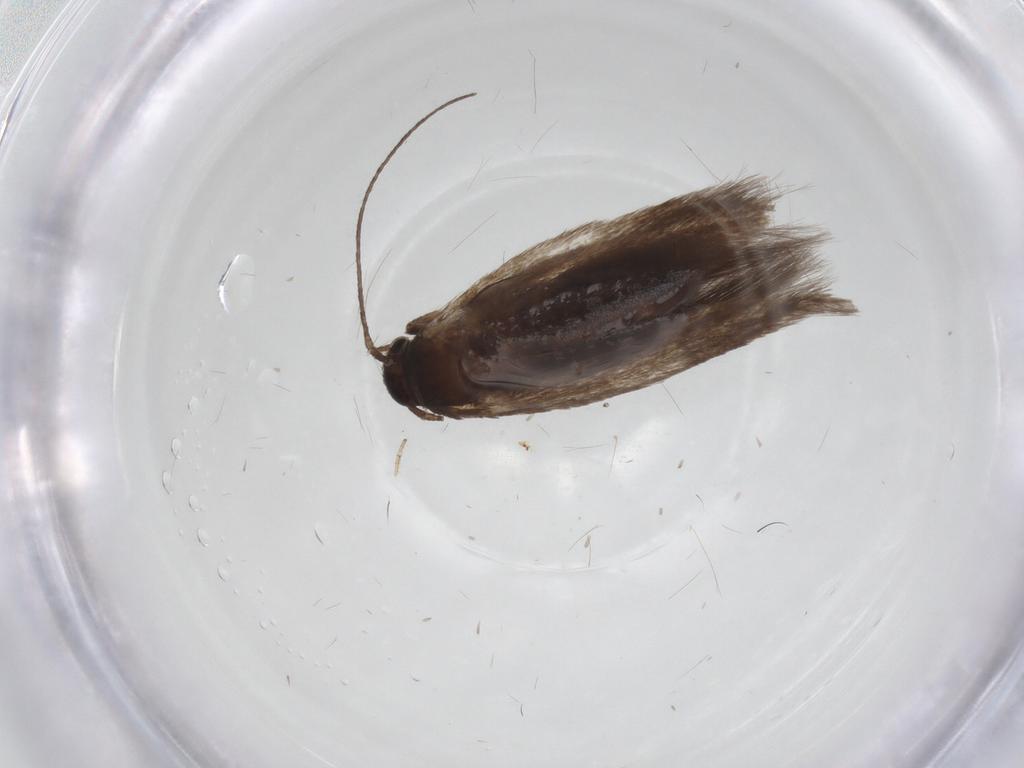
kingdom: Animalia
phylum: Arthropoda
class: Insecta
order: Lepidoptera
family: Scythrididae
